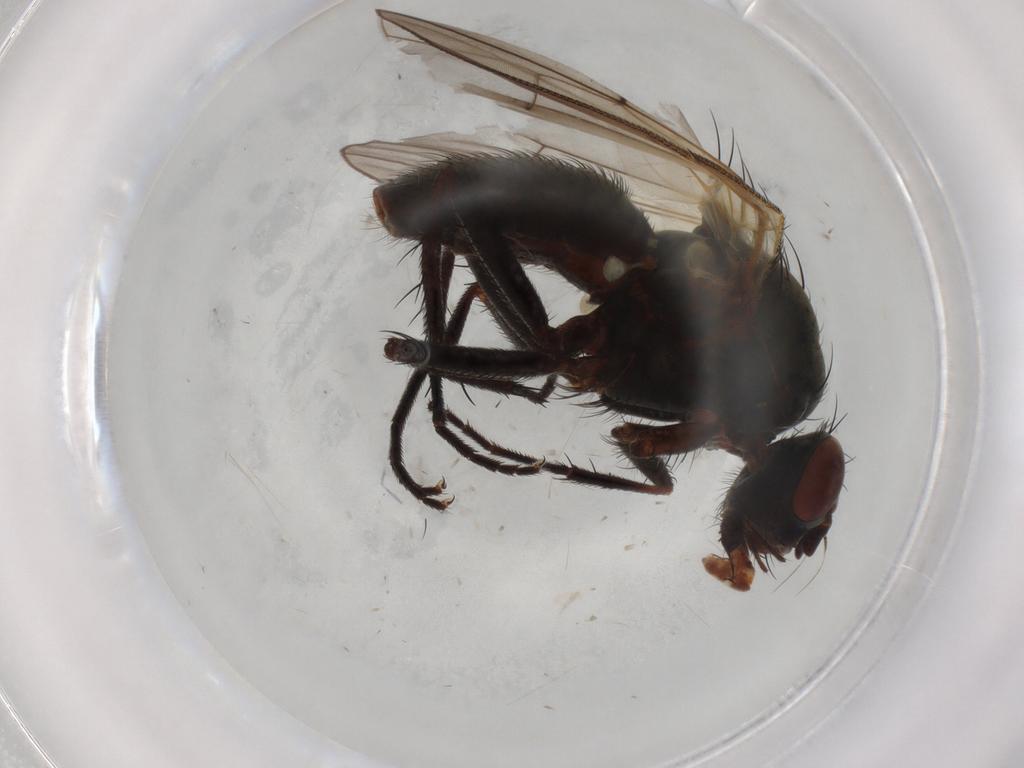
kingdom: Animalia
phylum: Arthropoda
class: Insecta
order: Diptera
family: Anthomyiidae
